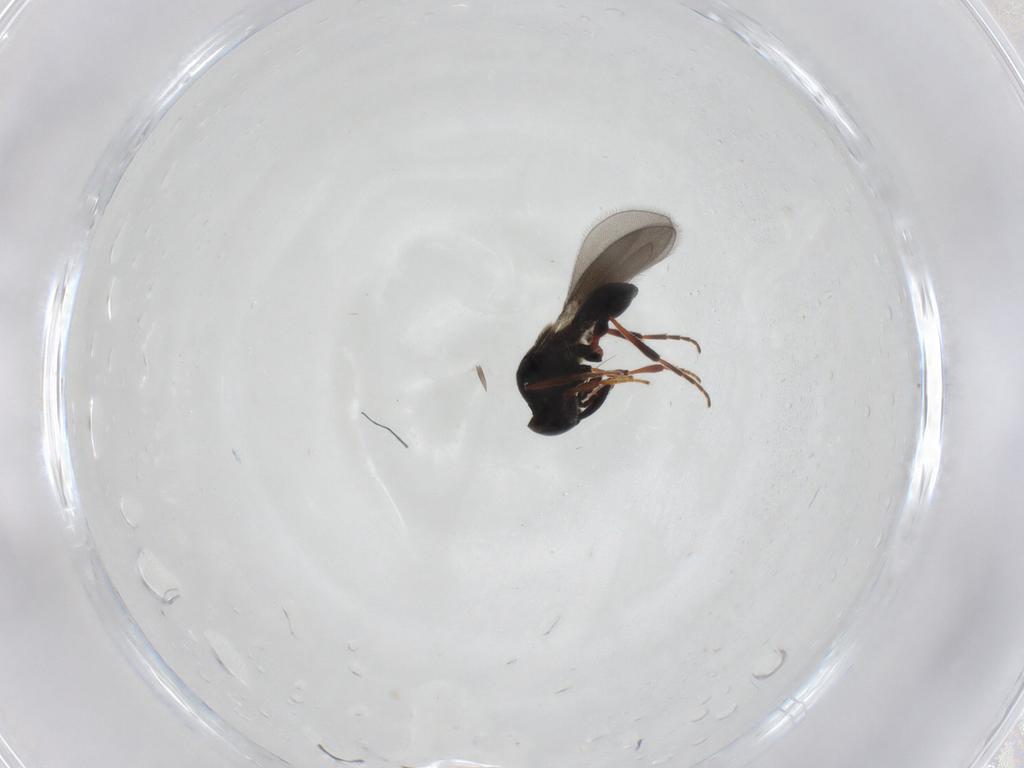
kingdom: Animalia
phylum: Arthropoda
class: Insecta
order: Hymenoptera
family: Platygastridae
